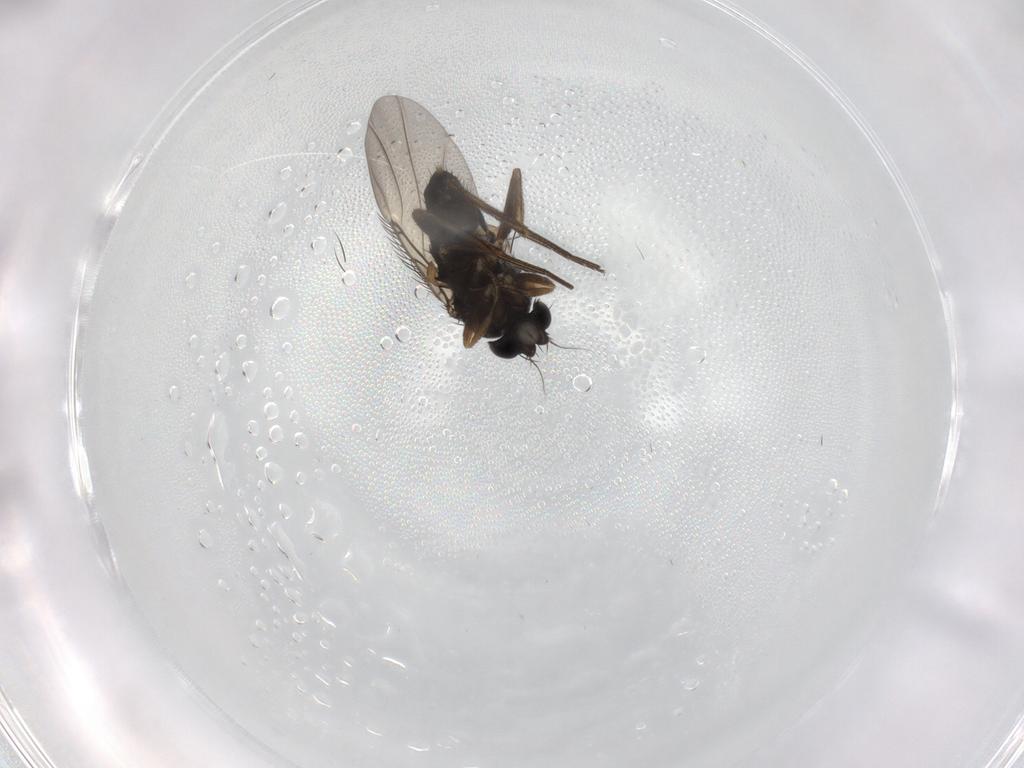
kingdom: Animalia
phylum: Arthropoda
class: Insecta
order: Diptera
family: Phoridae
